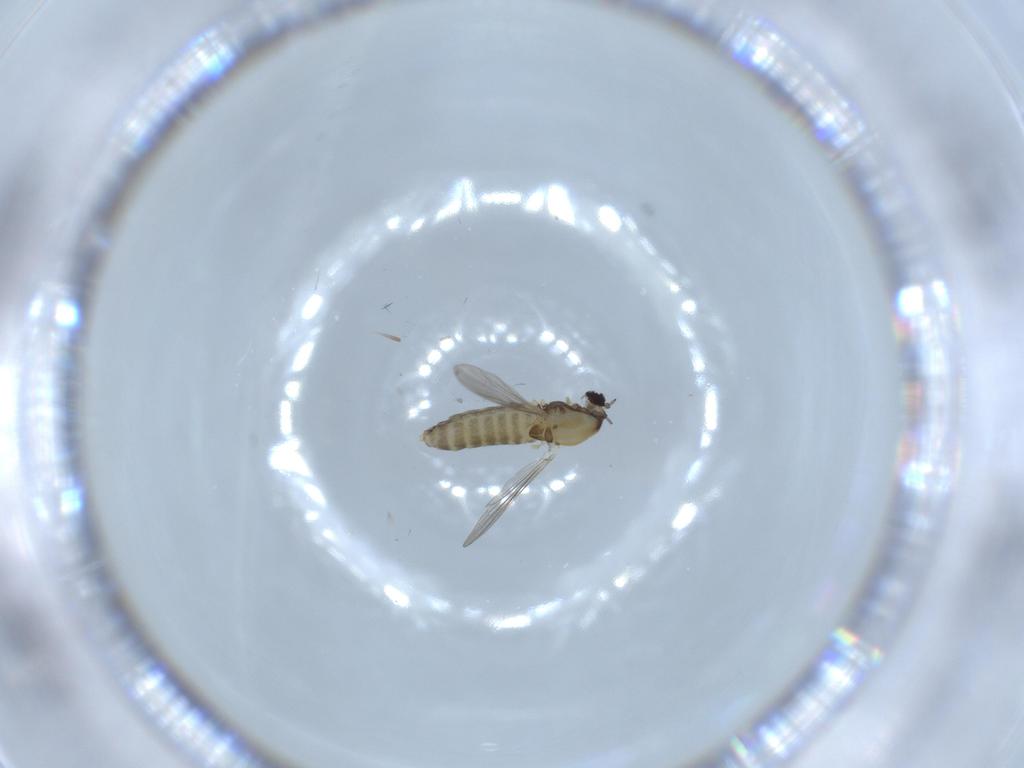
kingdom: Animalia
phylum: Arthropoda
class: Insecta
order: Diptera
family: Chironomidae
